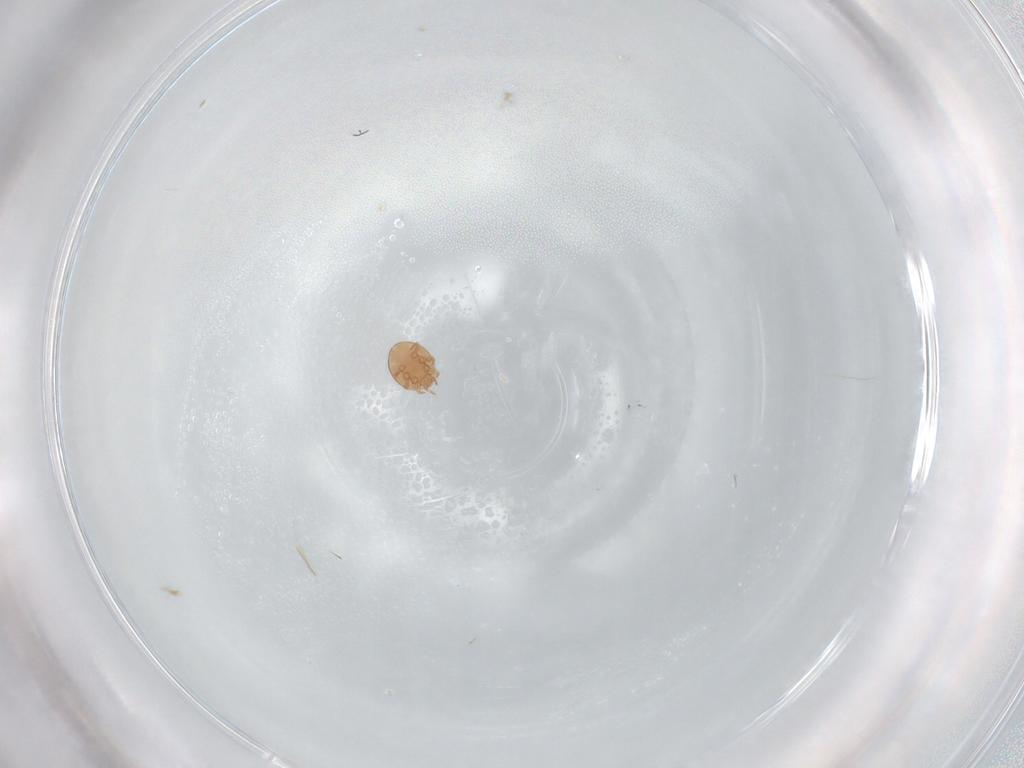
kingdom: Animalia
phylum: Arthropoda
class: Arachnida
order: Mesostigmata
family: Trematuridae
